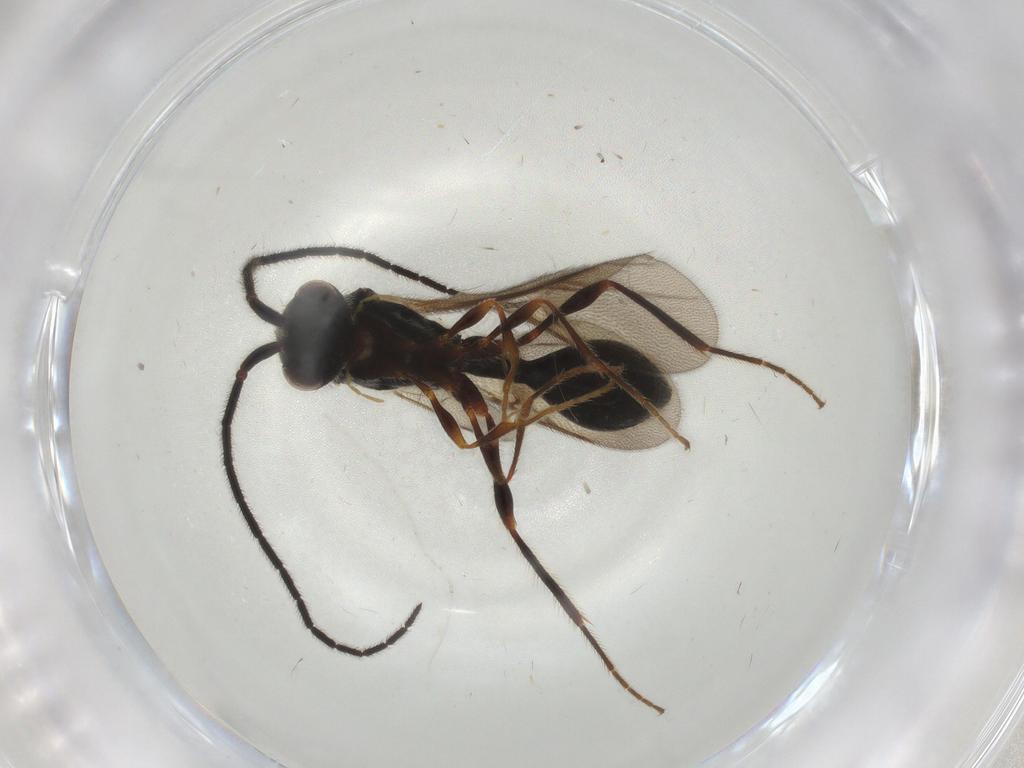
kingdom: Animalia
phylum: Arthropoda
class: Insecta
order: Hymenoptera
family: Diapriidae
